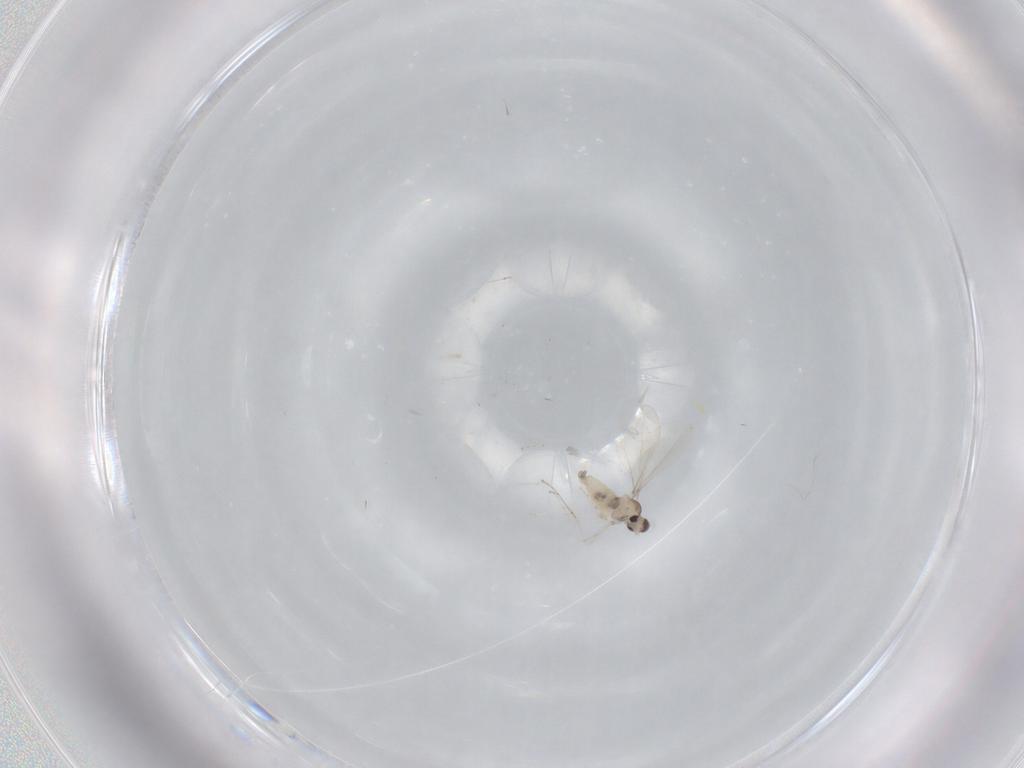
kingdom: Animalia
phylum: Arthropoda
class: Insecta
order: Diptera
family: Cecidomyiidae
